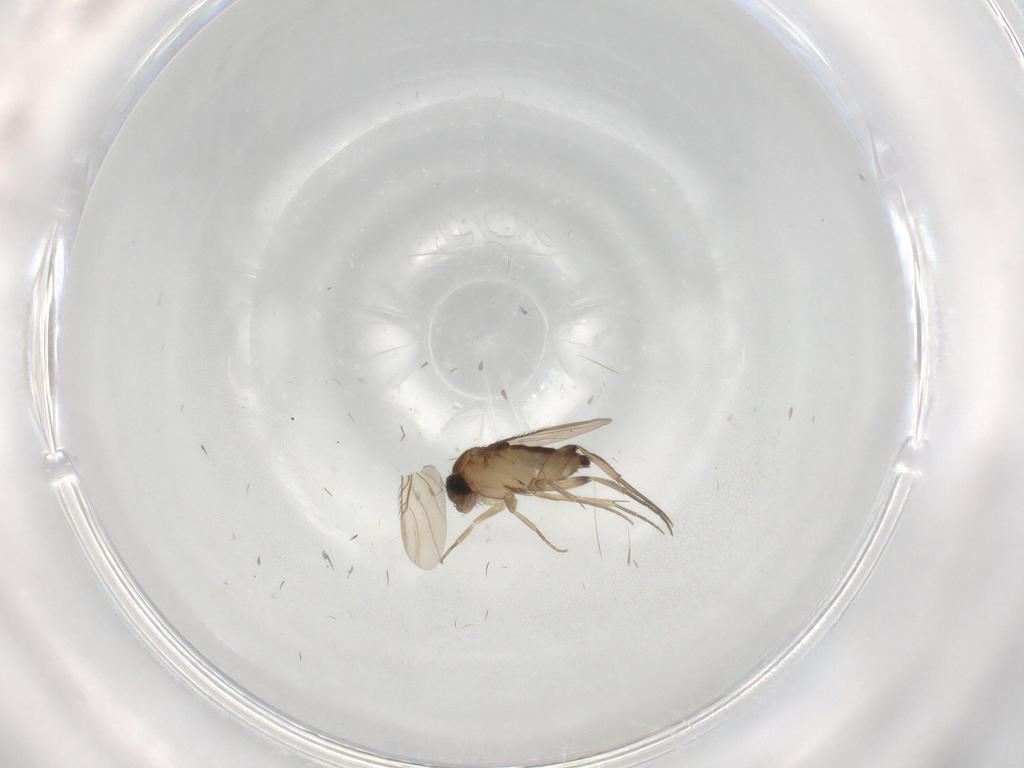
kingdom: Animalia
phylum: Arthropoda
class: Insecta
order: Diptera
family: Phoridae
